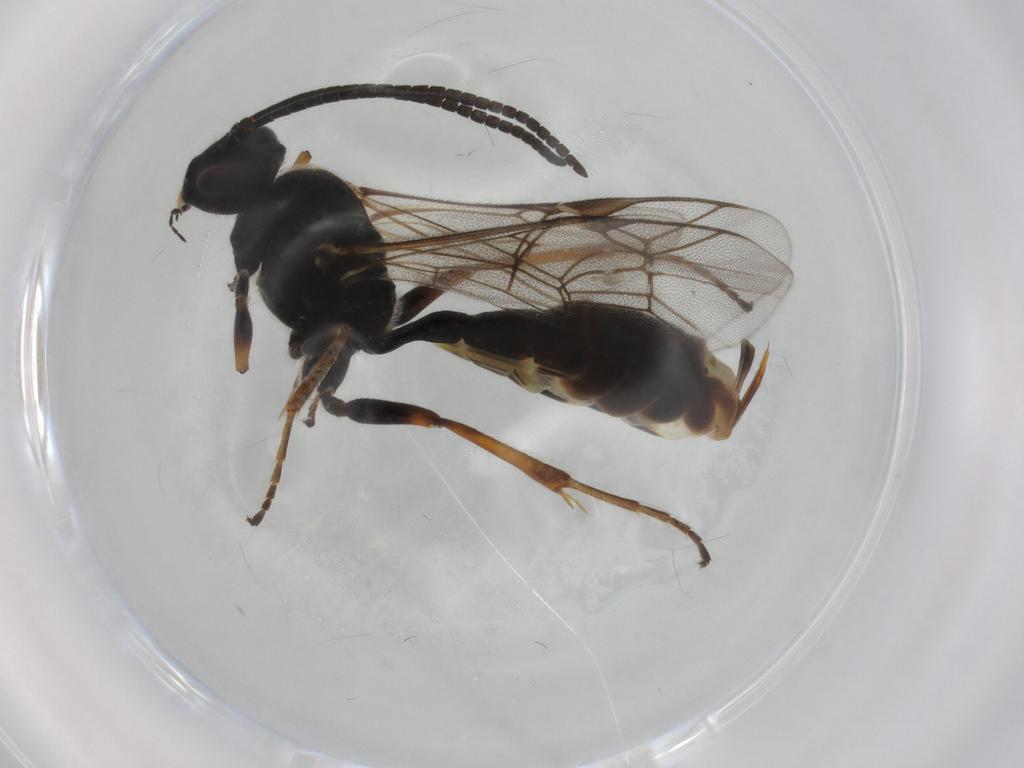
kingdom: Animalia
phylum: Arthropoda
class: Insecta
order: Hymenoptera
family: Ichneumonidae
